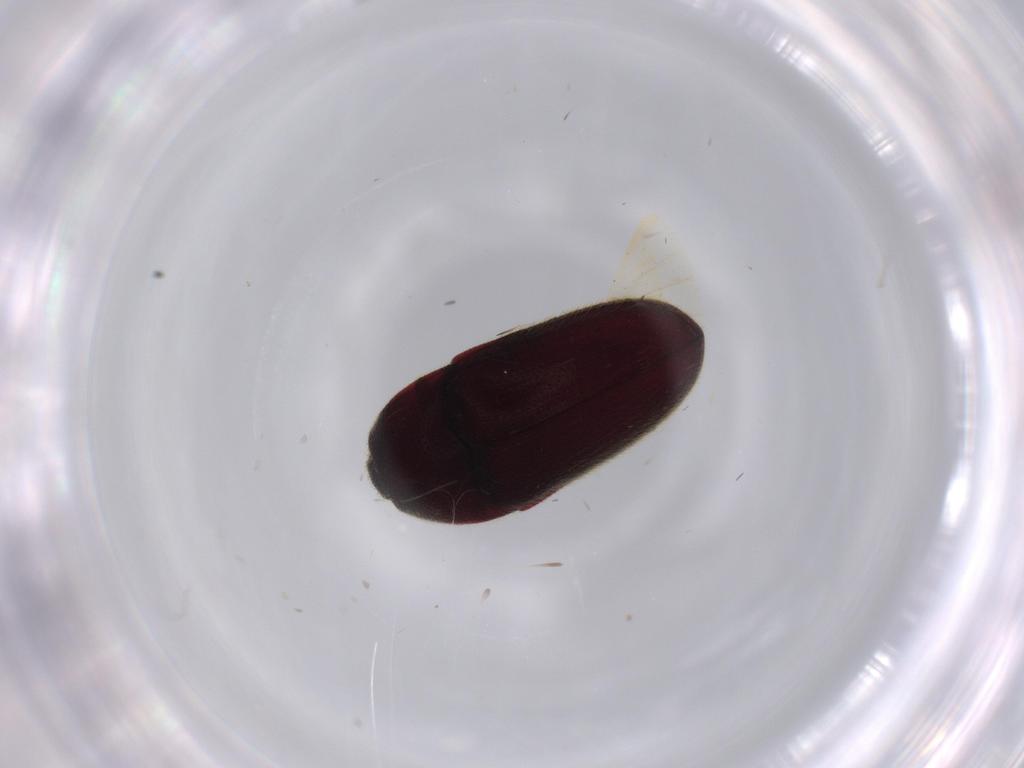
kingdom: Animalia
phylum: Arthropoda
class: Insecta
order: Coleoptera
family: Throscidae
